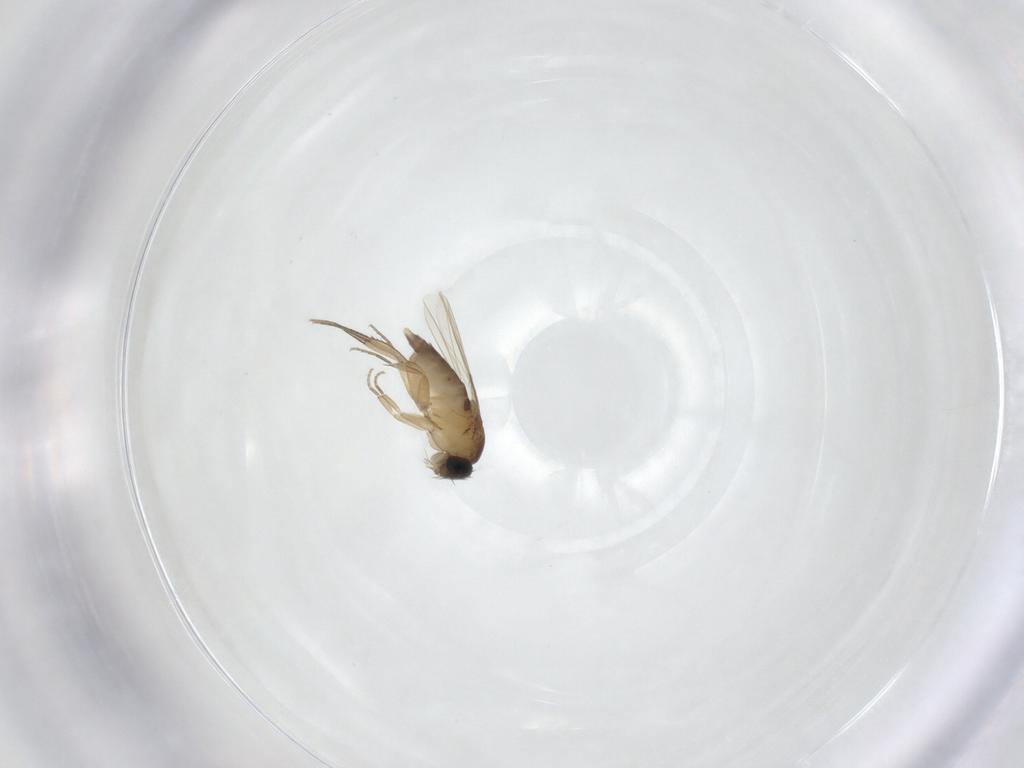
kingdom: Animalia
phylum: Arthropoda
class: Insecta
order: Diptera
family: Phoridae
